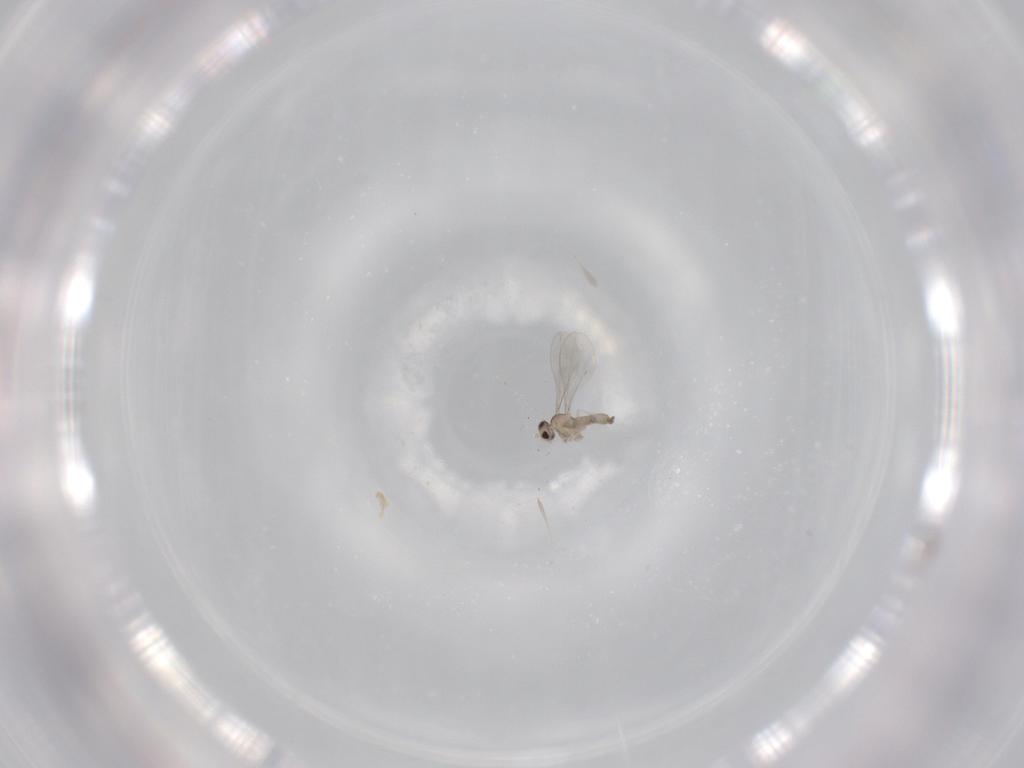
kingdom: Animalia
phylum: Arthropoda
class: Insecta
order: Diptera
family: Cecidomyiidae
